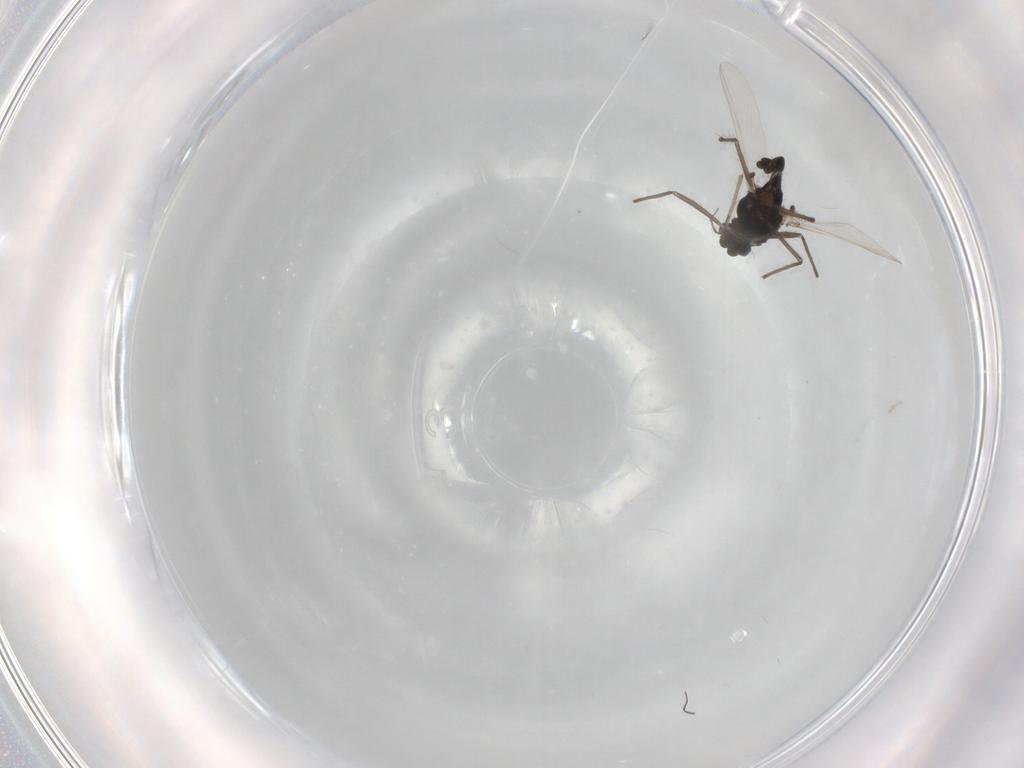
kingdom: Animalia
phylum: Arthropoda
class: Insecta
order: Diptera
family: Chironomidae
